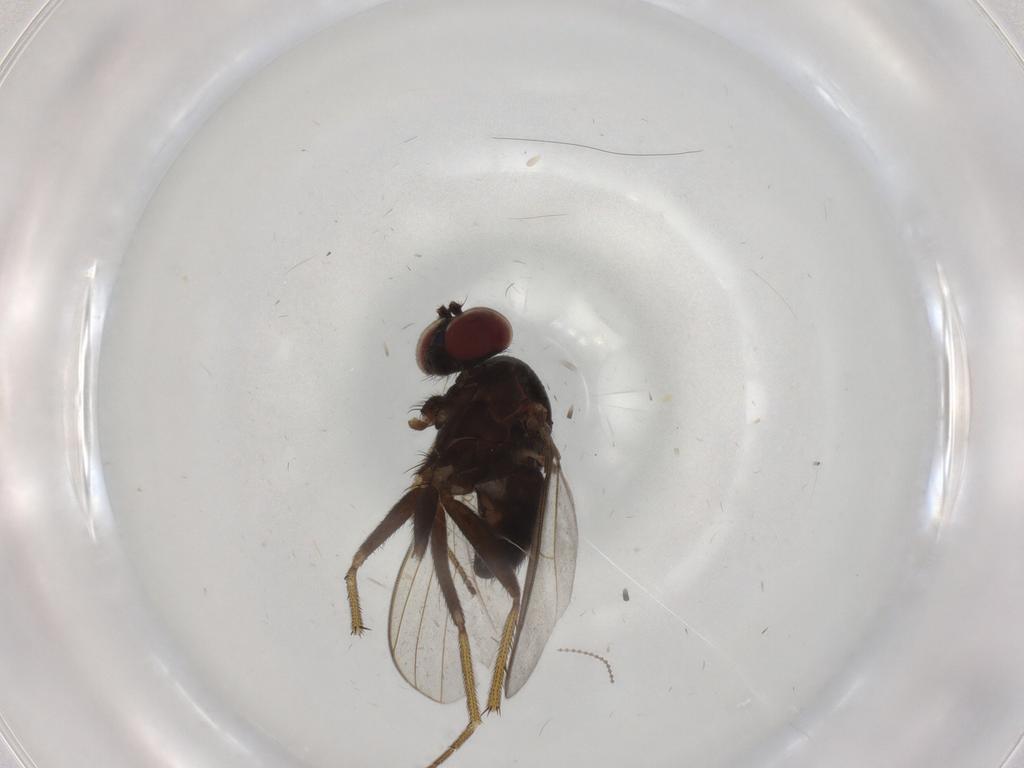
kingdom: Animalia
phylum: Arthropoda
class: Insecta
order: Diptera
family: Dolichopodidae
